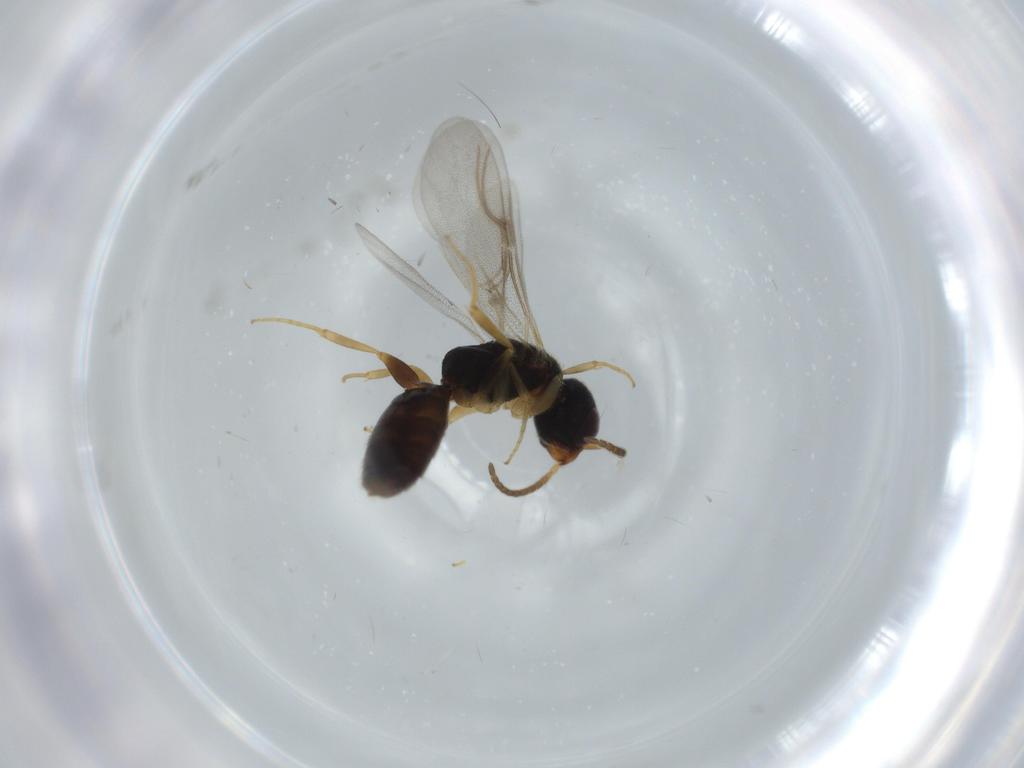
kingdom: Animalia
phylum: Arthropoda
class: Insecta
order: Hymenoptera
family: Bethylidae
